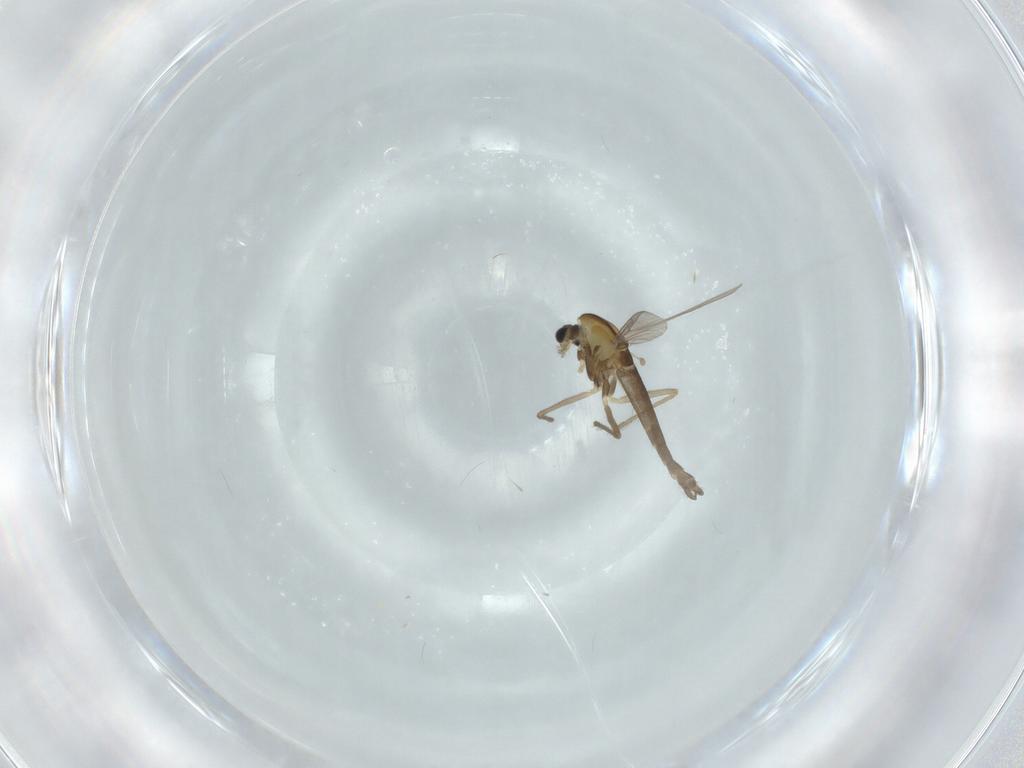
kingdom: Animalia
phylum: Arthropoda
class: Insecta
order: Diptera
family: Chironomidae
